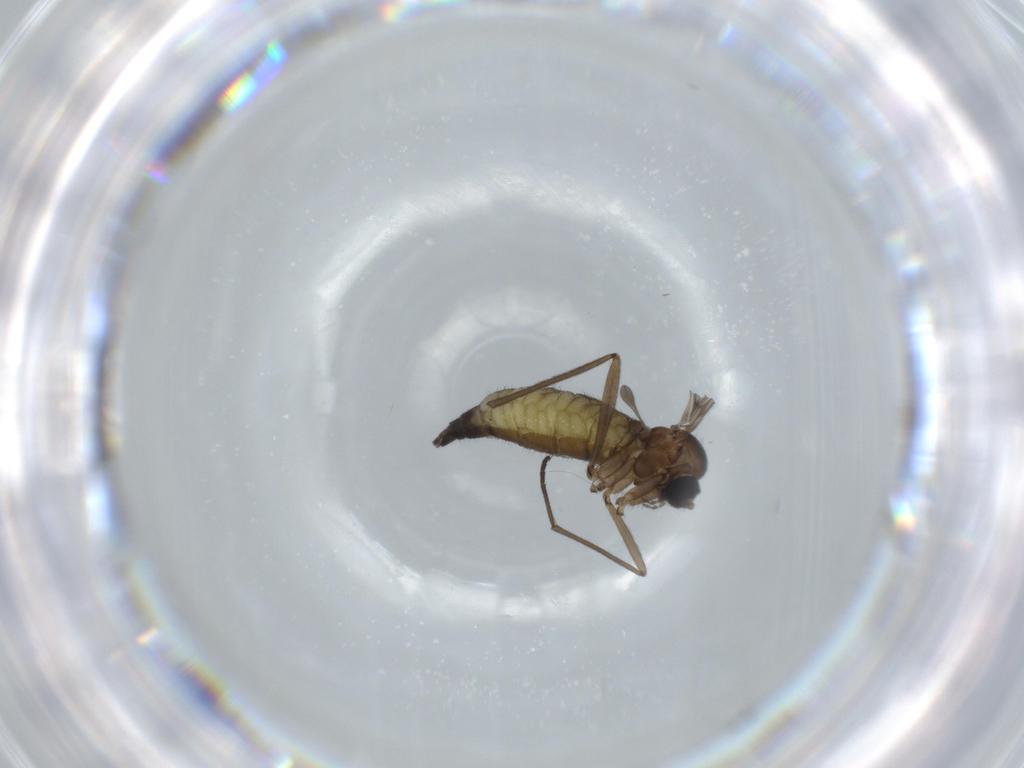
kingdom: Animalia
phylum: Arthropoda
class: Insecta
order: Diptera
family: Sciaridae
